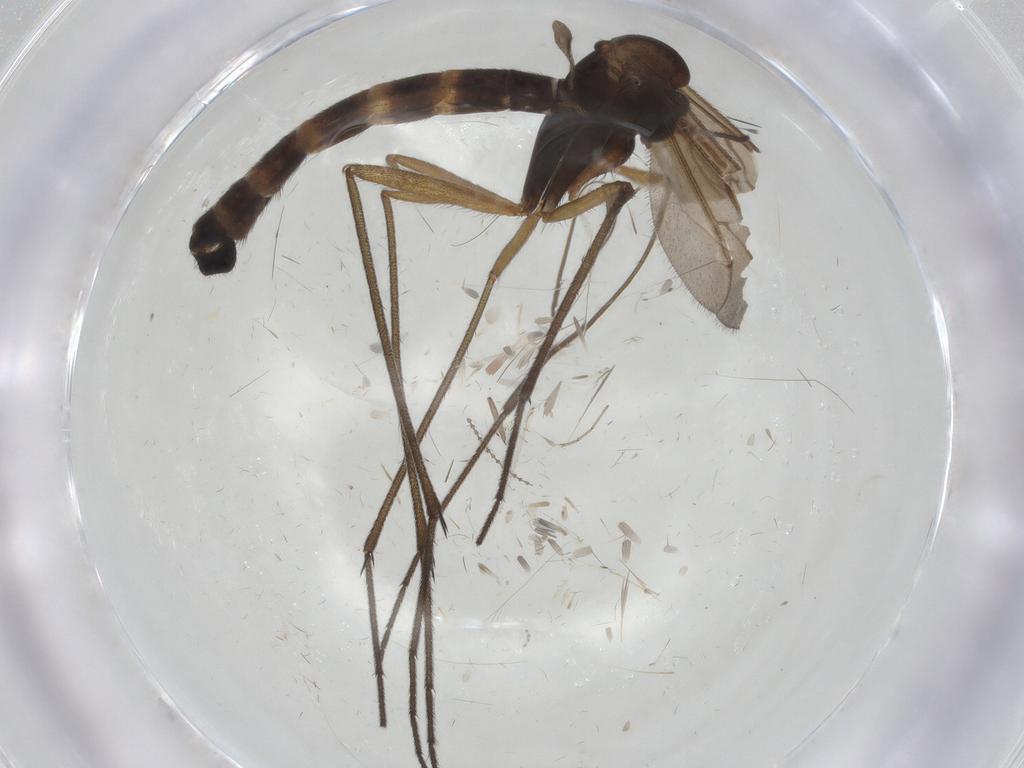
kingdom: Animalia
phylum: Arthropoda
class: Insecta
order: Diptera
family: Ditomyiidae
